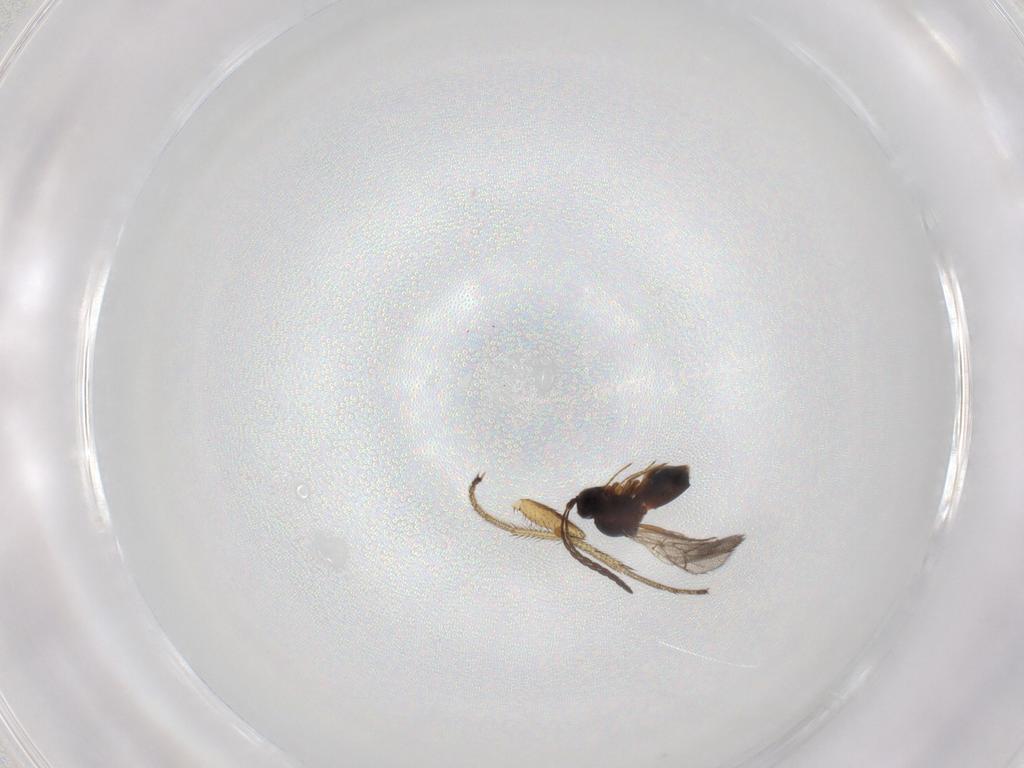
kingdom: Animalia
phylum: Arthropoda
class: Insecta
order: Hymenoptera
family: Figitidae
